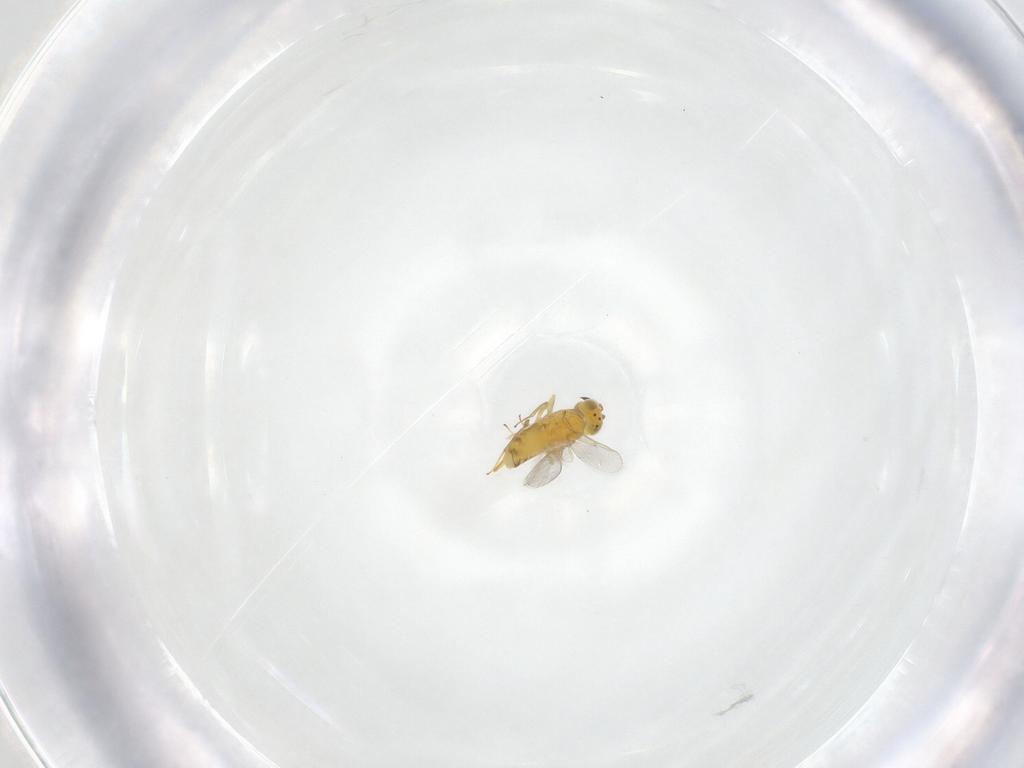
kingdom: Animalia
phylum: Arthropoda
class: Insecta
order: Hymenoptera
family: Aphelinidae
